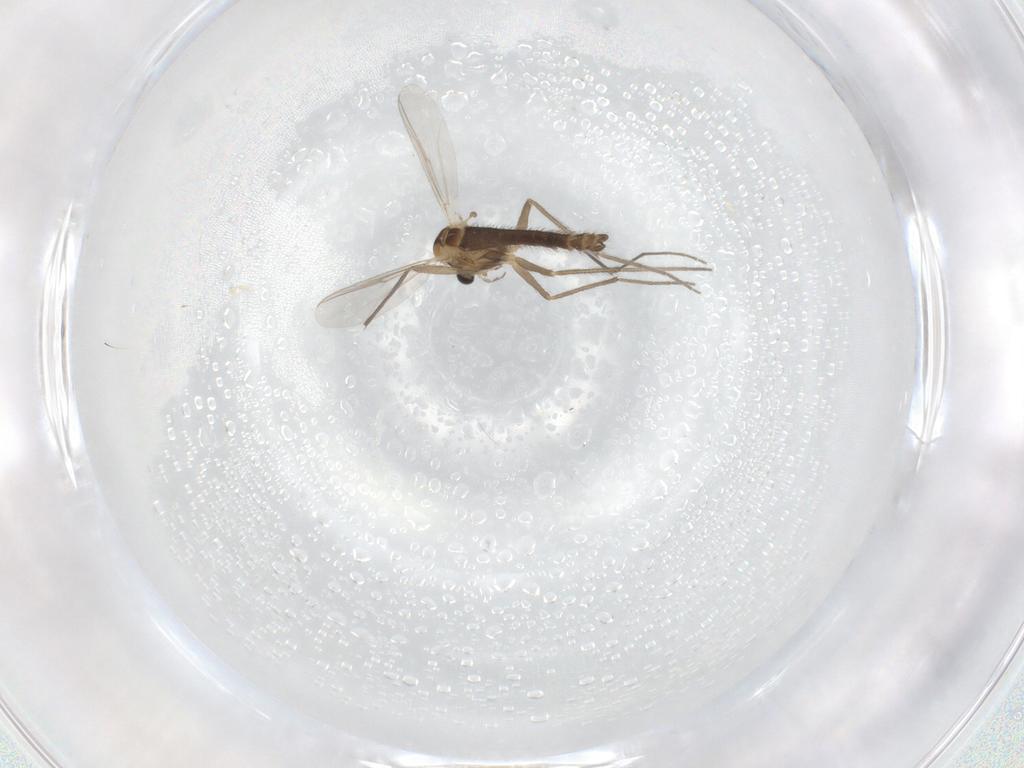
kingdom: Animalia
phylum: Arthropoda
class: Insecta
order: Diptera
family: Chironomidae
